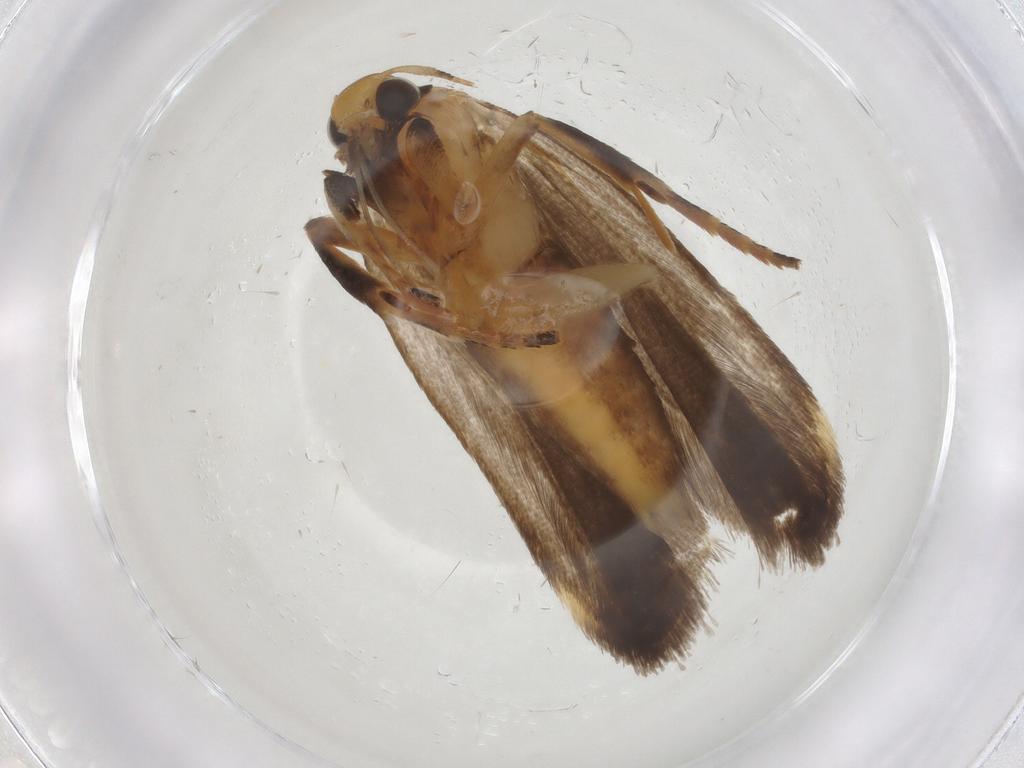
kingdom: Animalia
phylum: Arthropoda
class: Insecta
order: Lepidoptera
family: Gelechiidae
